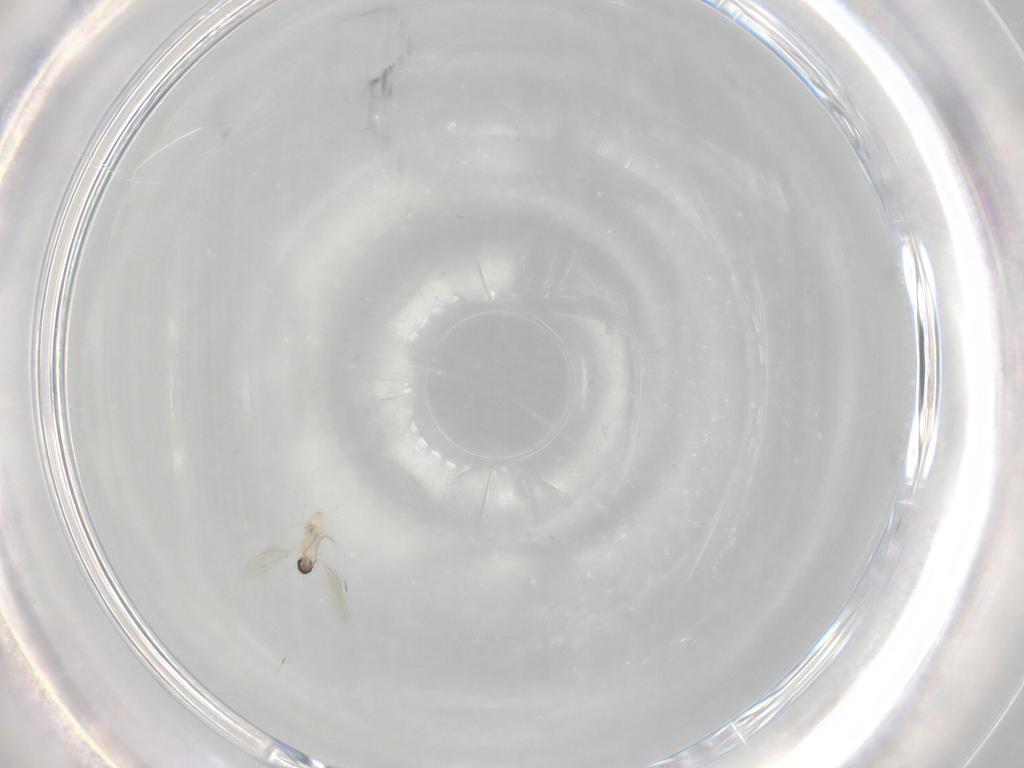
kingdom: Animalia
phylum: Arthropoda
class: Insecta
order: Diptera
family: Cecidomyiidae
